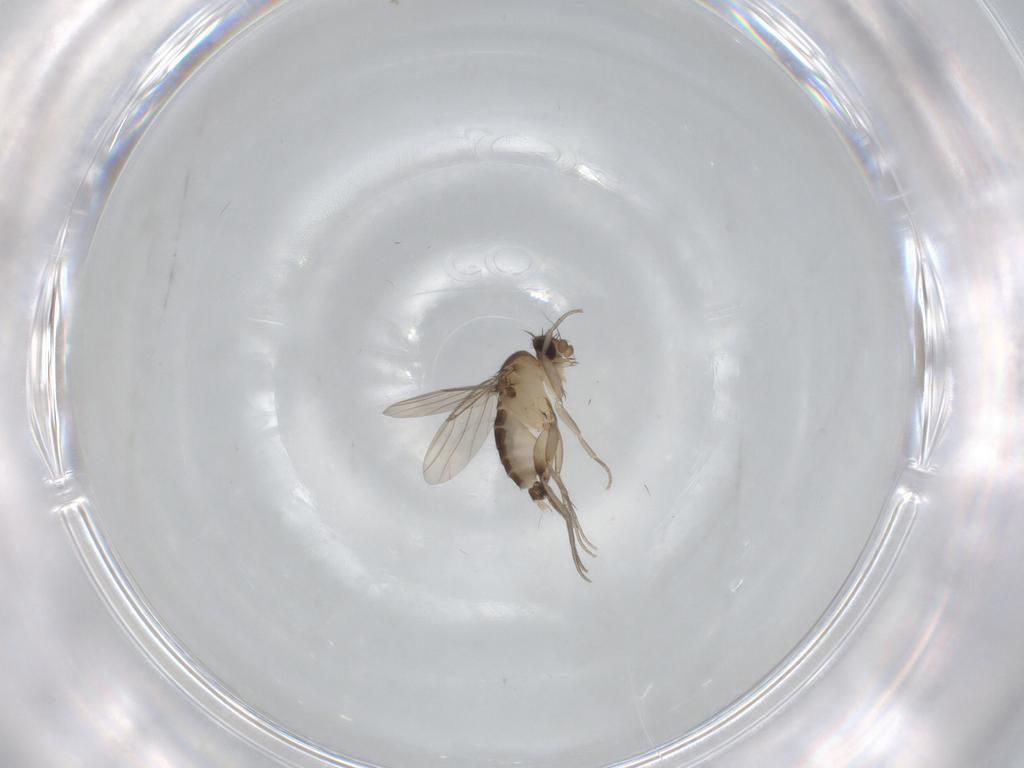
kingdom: Animalia
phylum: Arthropoda
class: Insecta
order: Diptera
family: Phoridae
